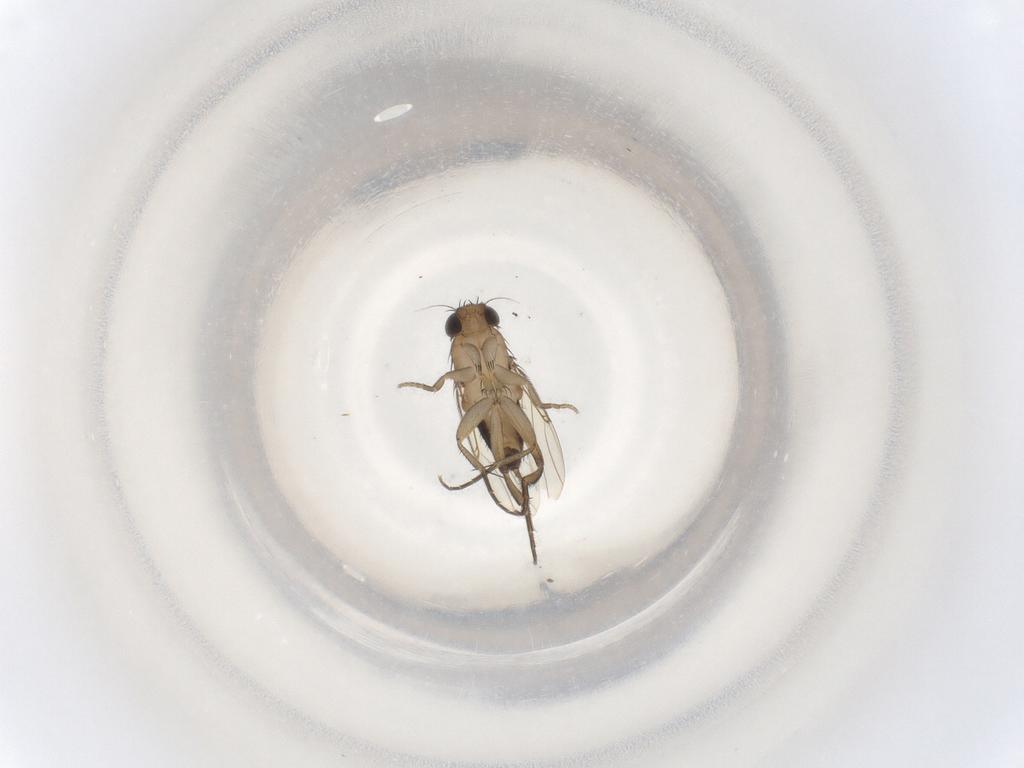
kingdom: Animalia
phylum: Arthropoda
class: Insecta
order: Diptera
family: Phoridae
